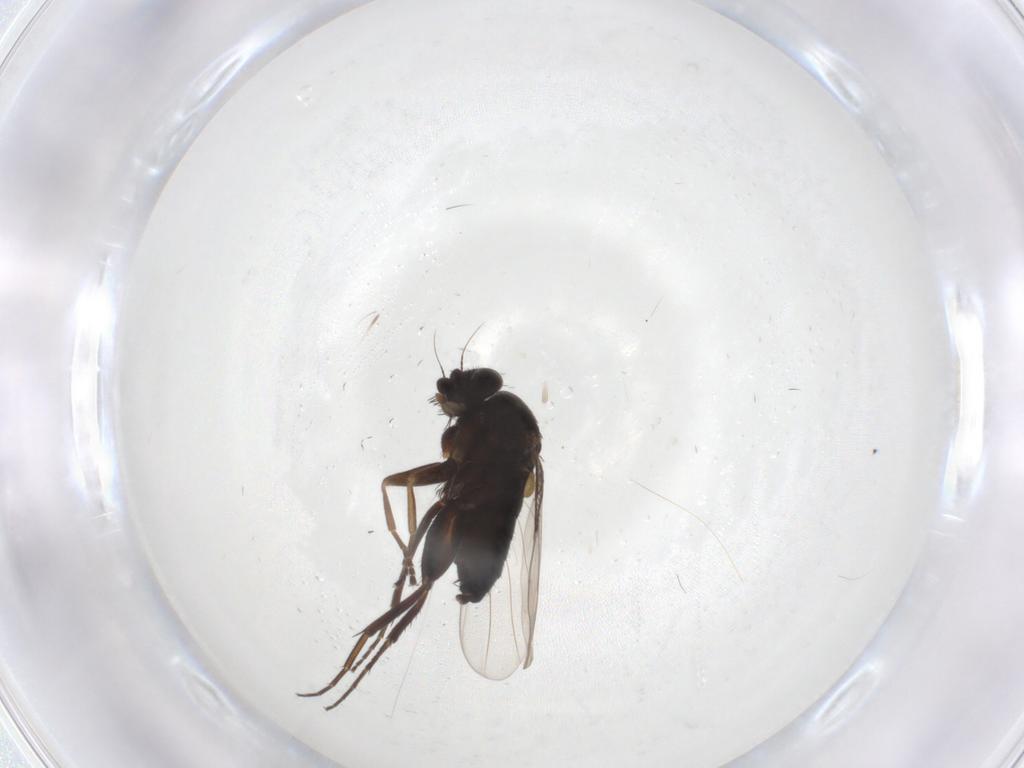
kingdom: Animalia
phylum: Arthropoda
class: Insecta
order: Diptera
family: Phoridae
